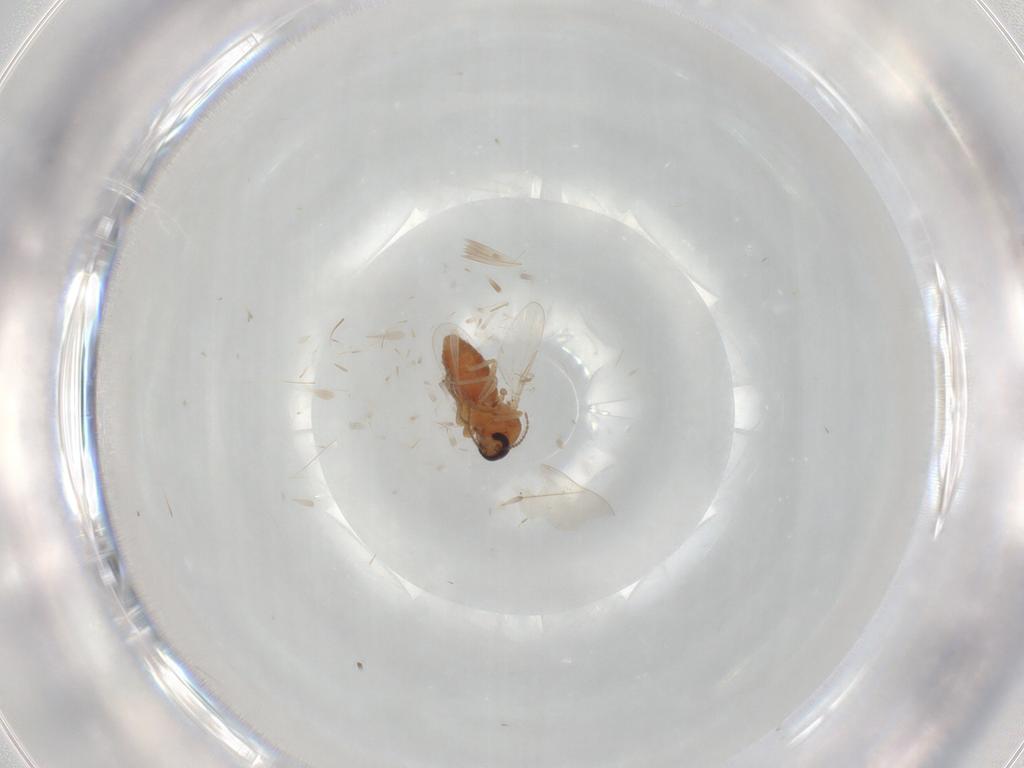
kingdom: Animalia
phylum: Arthropoda
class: Insecta
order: Diptera
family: Ceratopogonidae
